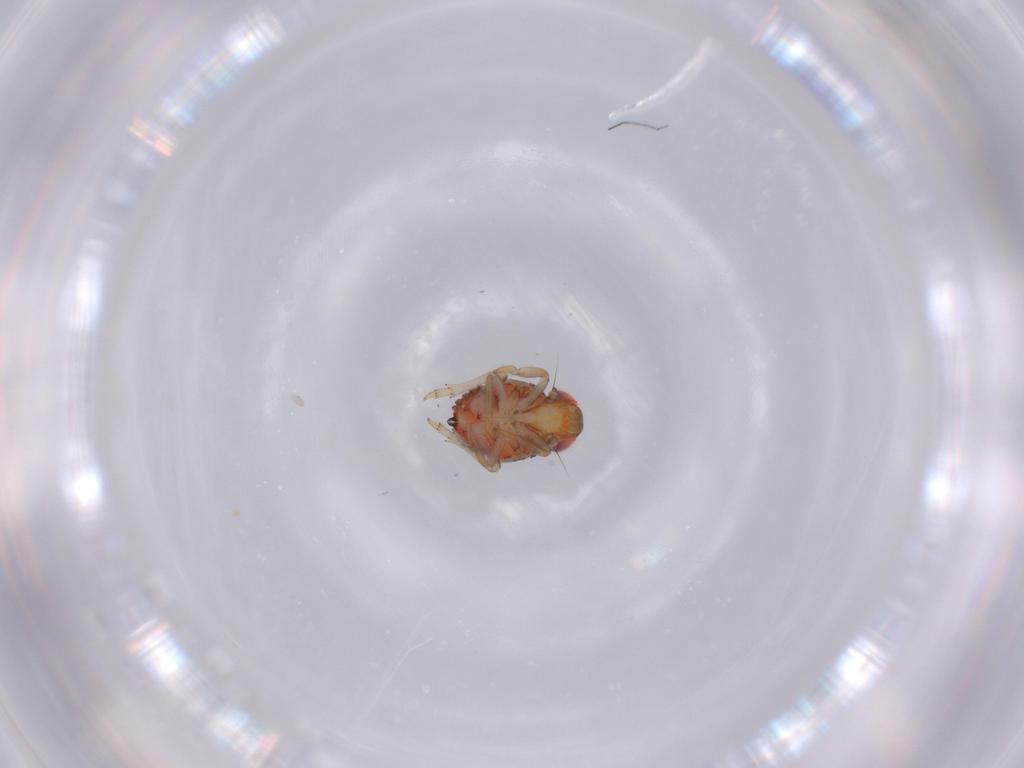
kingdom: Animalia
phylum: Arthropoda
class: Insecta
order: Hemiptera
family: Issidae
